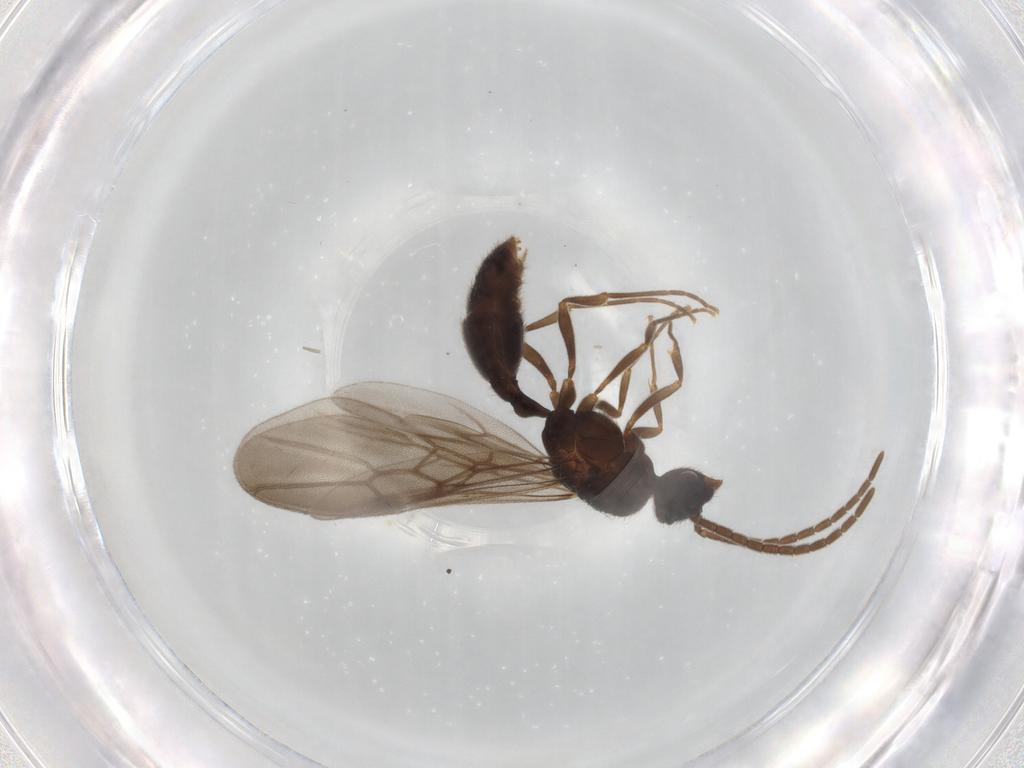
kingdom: Animalia
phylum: Arthropoda
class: Insecta
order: Hymenoptera
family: Formicidae
